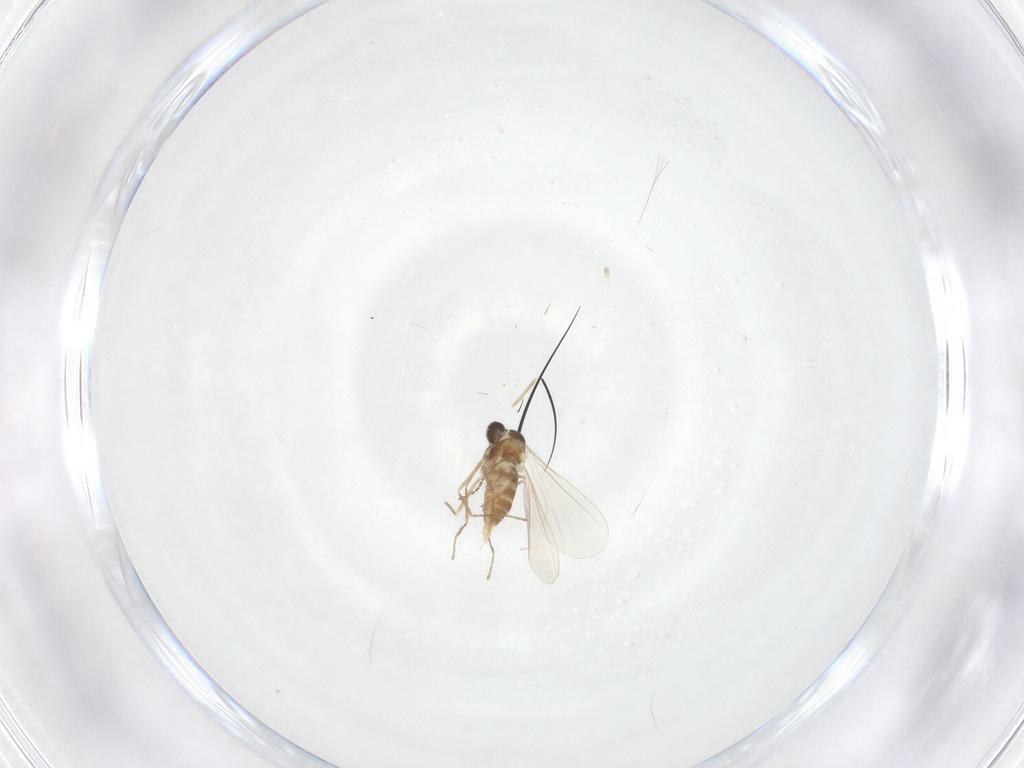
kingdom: Animalia
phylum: Arthropoda
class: Insecta
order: Diptera
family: Cecidomyiidae
